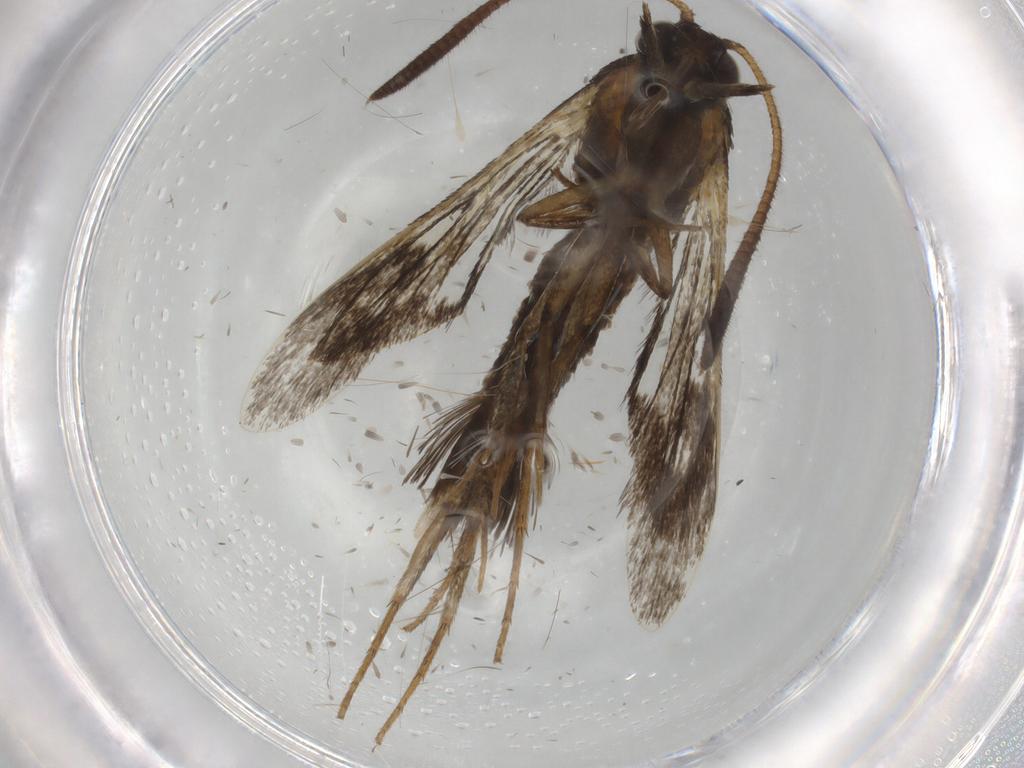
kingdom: Animalia
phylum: Arthropoda
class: Insecta
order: Lepidoptera
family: Sesiidae
